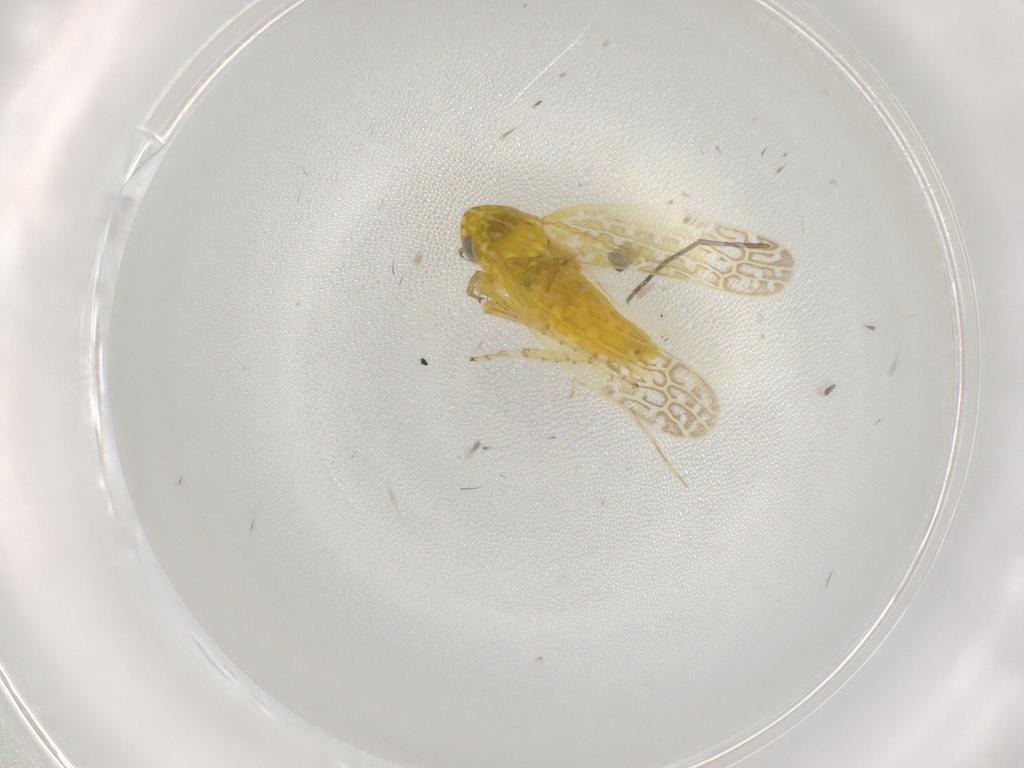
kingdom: Animalia
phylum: Arthropoda
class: Insecta
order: Hemiptera
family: Cicadellidae
